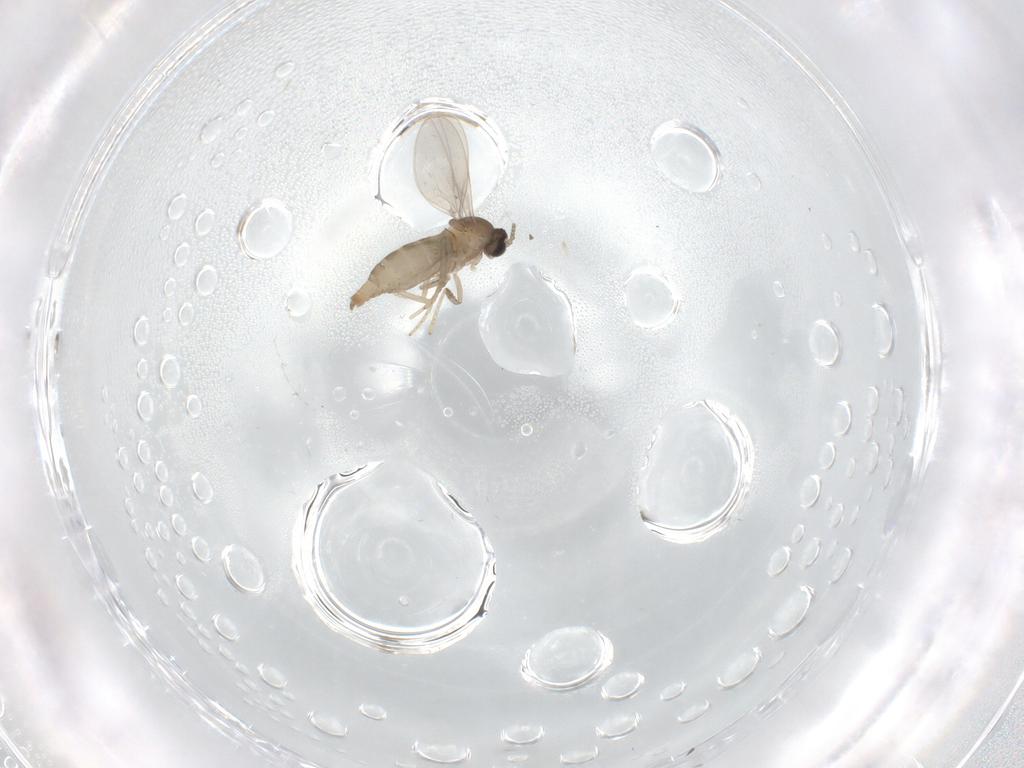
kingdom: Animalia
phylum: Arthropoda
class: Insecta
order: Diptera
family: Cecidomyiidae
